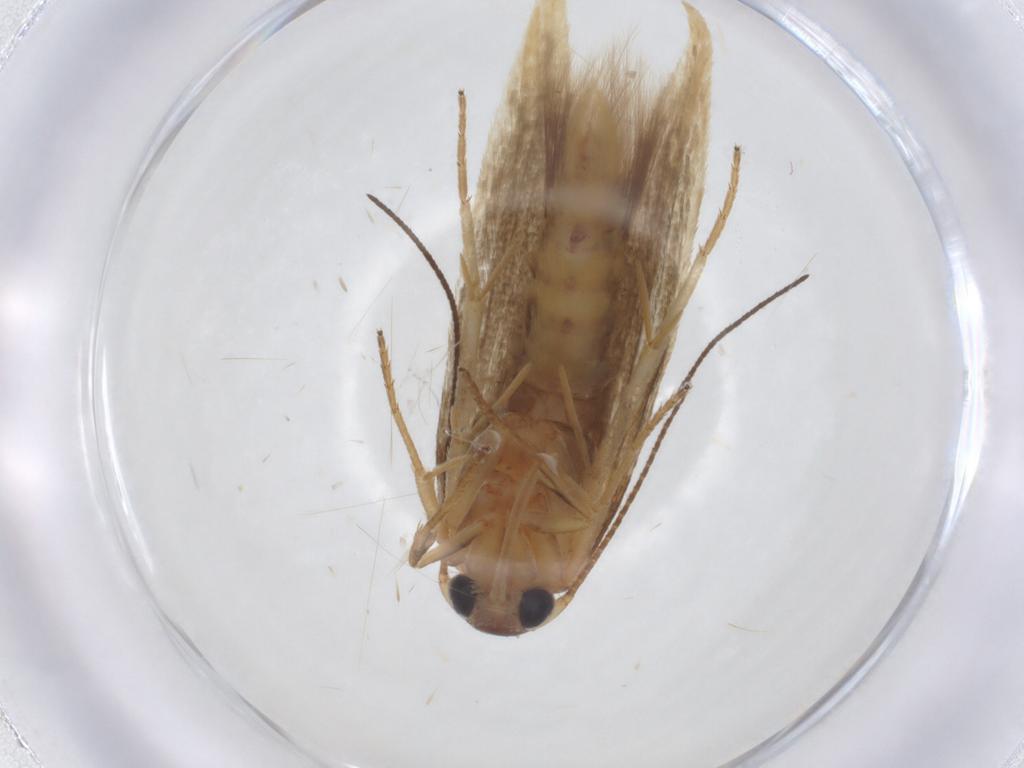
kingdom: Animalia
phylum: Arthropoda
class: Insecta
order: Lepidoptera
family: Stathmopodidae
